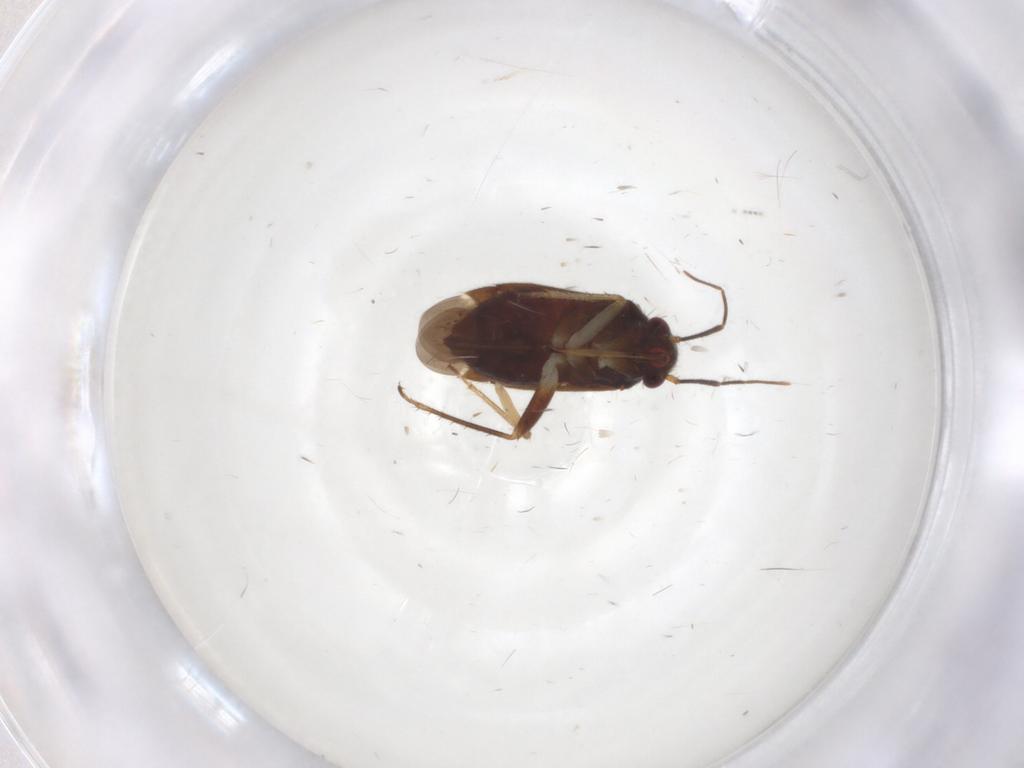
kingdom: Animalia
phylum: Arthropoda
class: Insecta
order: Hemiptera
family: Miridae
